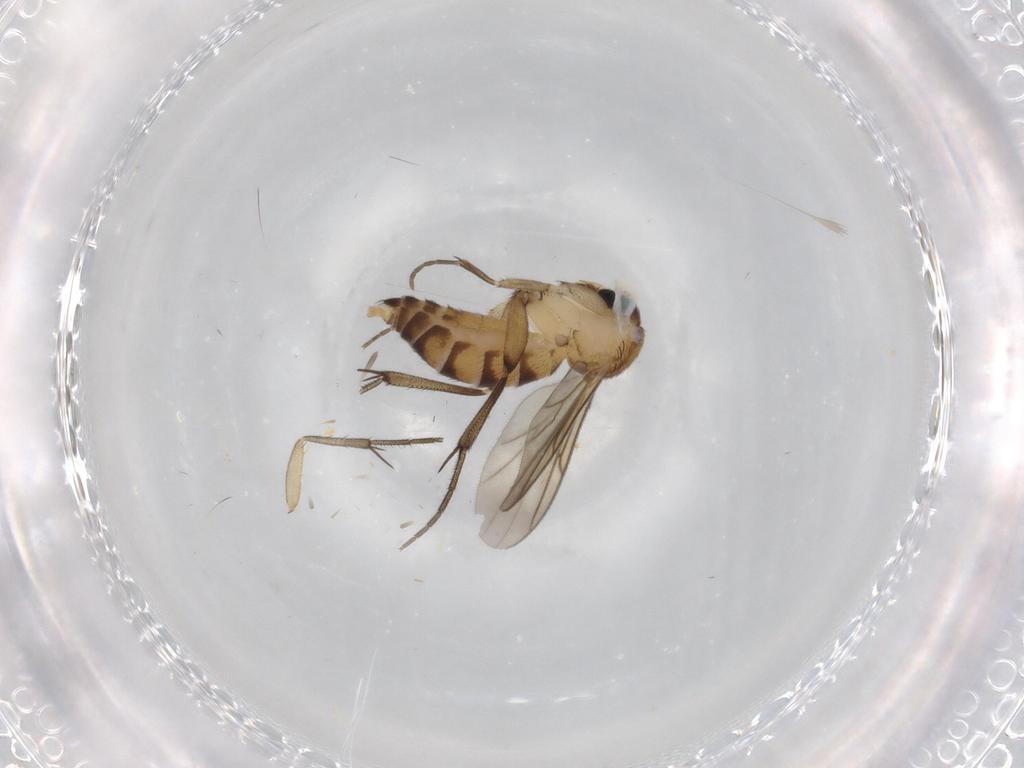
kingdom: Animalia
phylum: Arthropoda
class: Insecta
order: Diptera
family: Mycetophilidae
